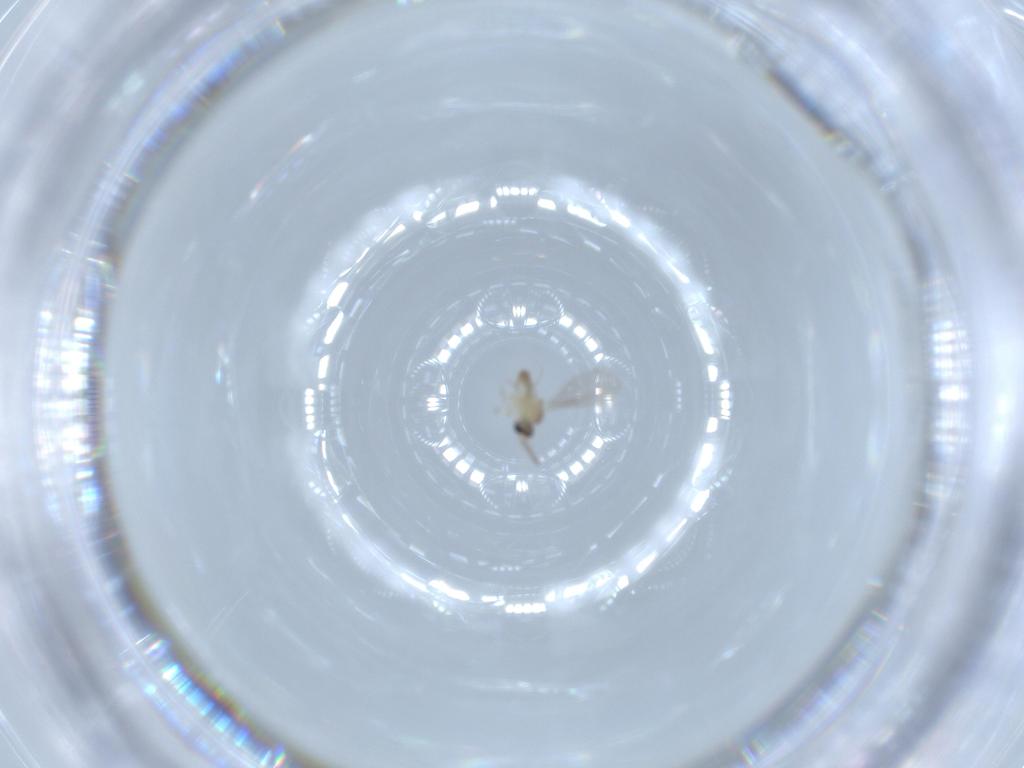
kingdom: Animalia
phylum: Arthropoda
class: Insecta
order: Diptera
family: Cecidomyiidae
